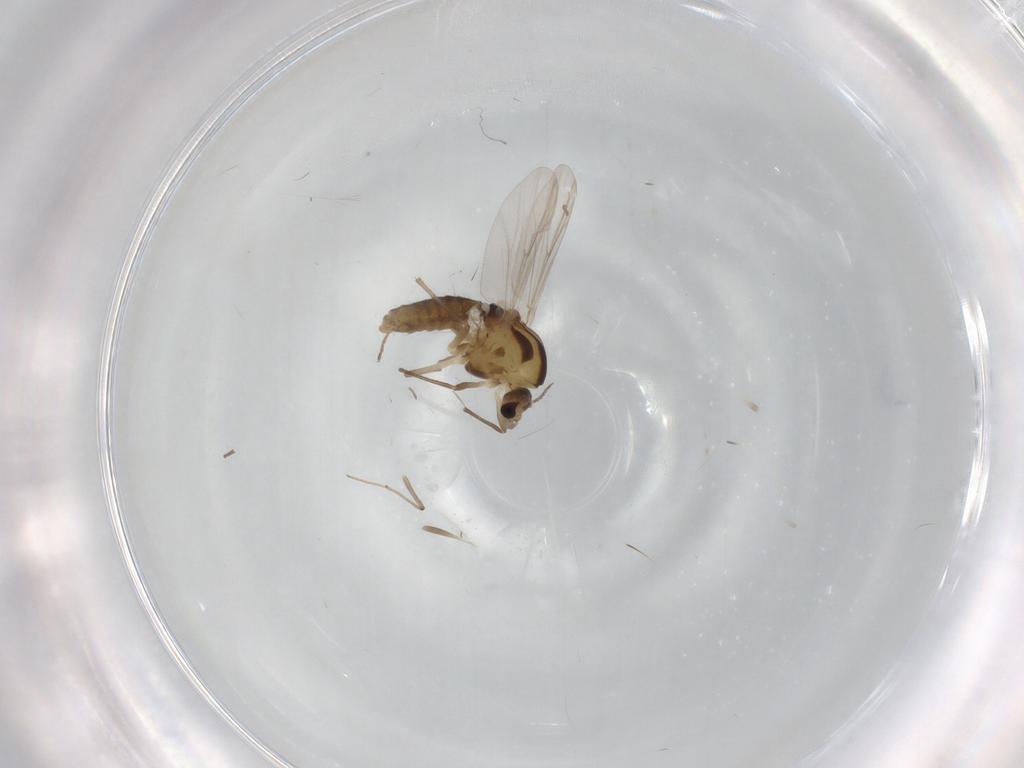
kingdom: Animalia
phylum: Arthropoda
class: Insecta
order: Diptera
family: Chironomidae
